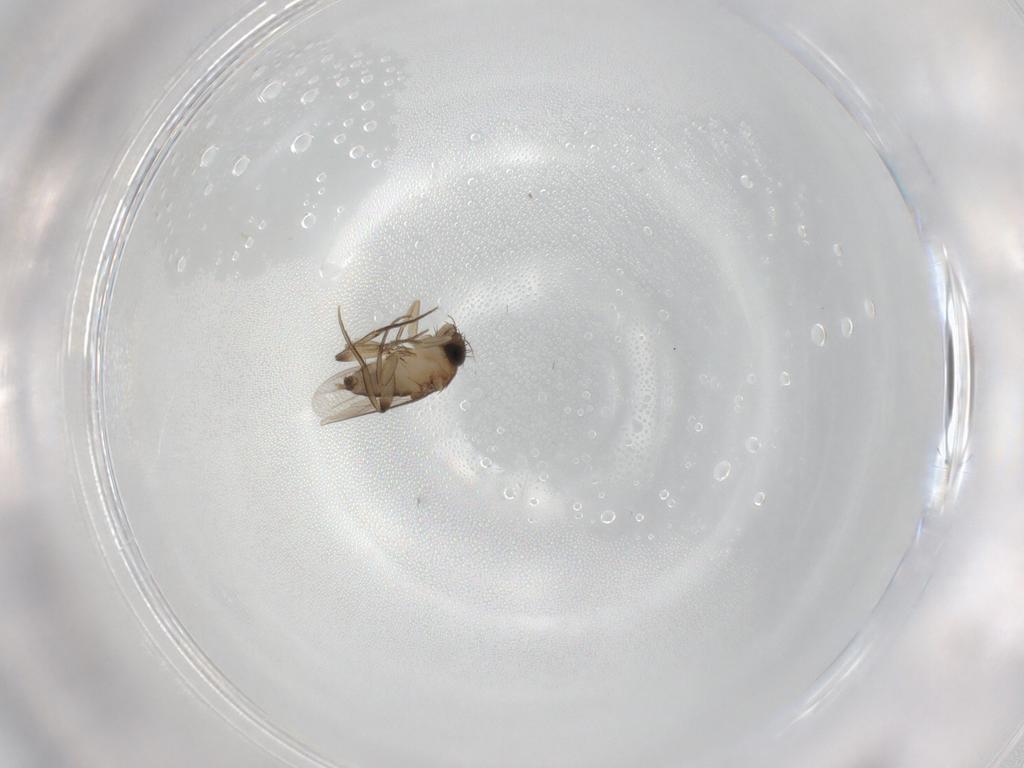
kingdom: Animalia
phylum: Arthropoda
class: Insecta
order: Diptera
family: Phoridae
